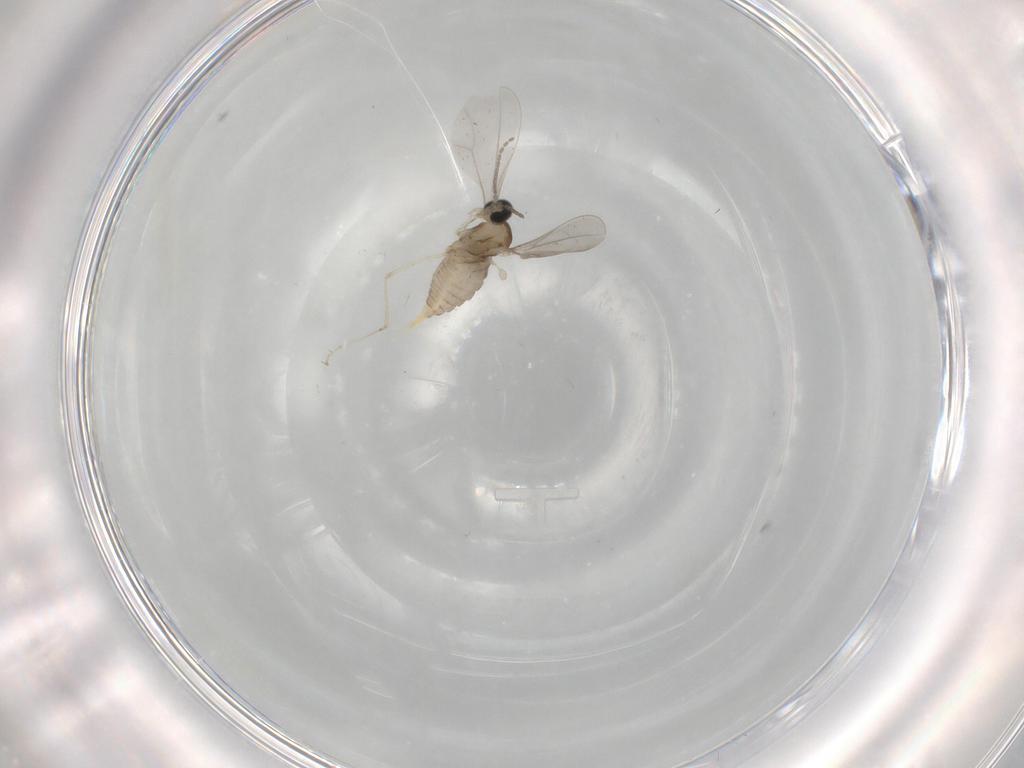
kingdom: Animalia
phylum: Arthropoda
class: Insecta
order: Diptera
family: Cecidomyiidae
